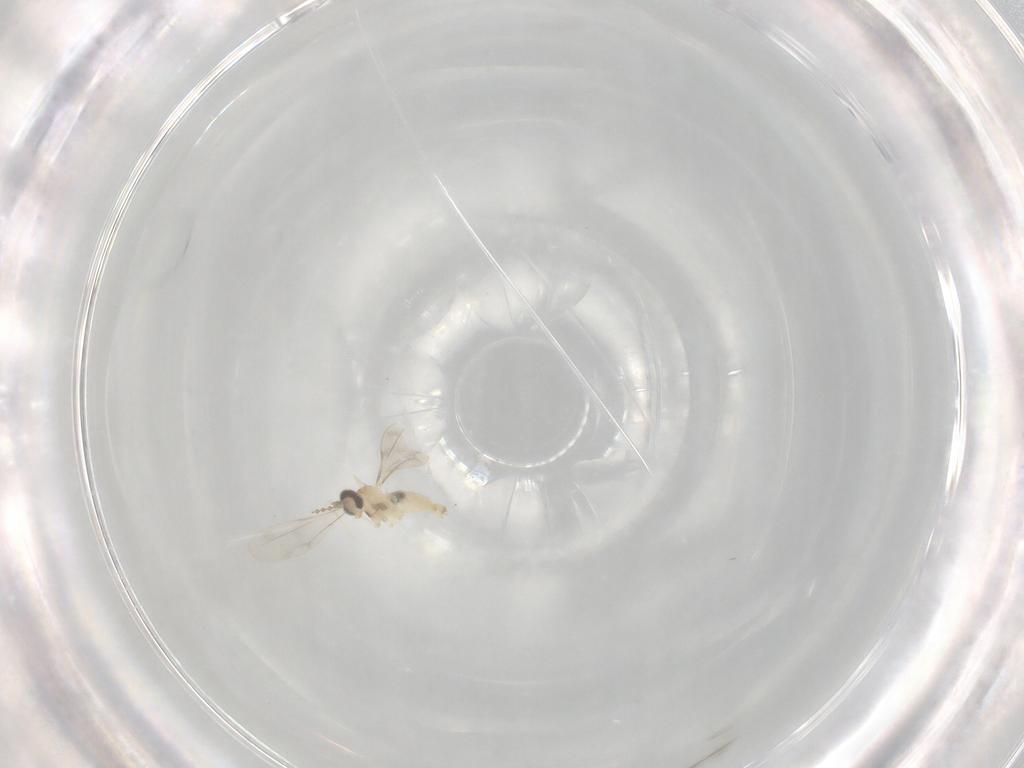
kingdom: Animalia
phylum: Arthropoda
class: Insecta
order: Diptera
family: Cecidomyiidae
